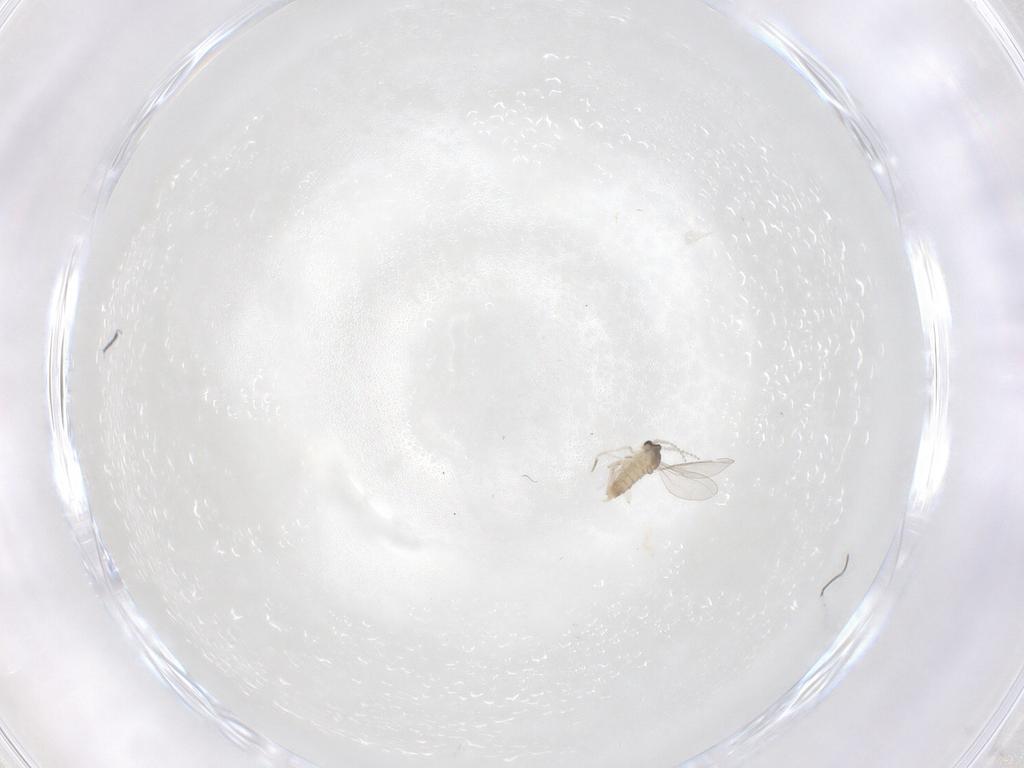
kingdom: Animalia
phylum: Arthropoda
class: Insecta
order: Diptera
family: Cecidomyiidae
